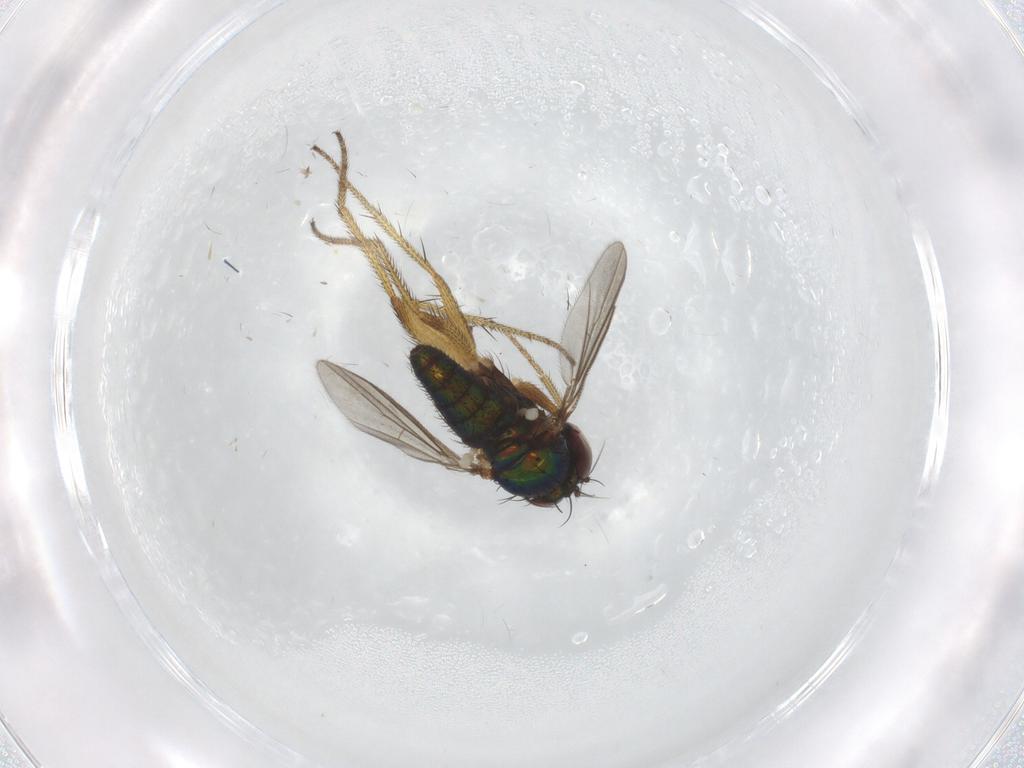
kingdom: Animalia
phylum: Arthropoda
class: Insecta
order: Diptera
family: Dolichopodidae
